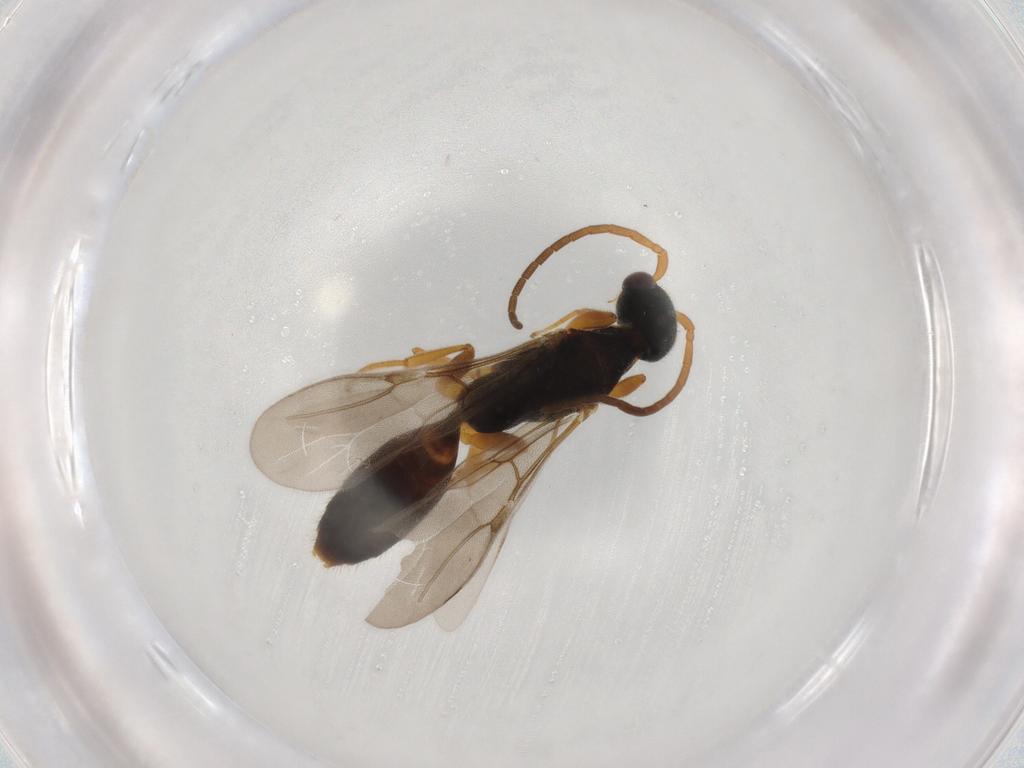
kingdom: Animalia
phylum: Arthropoda
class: Insecta
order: Hymenoptera
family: Bethylidae
